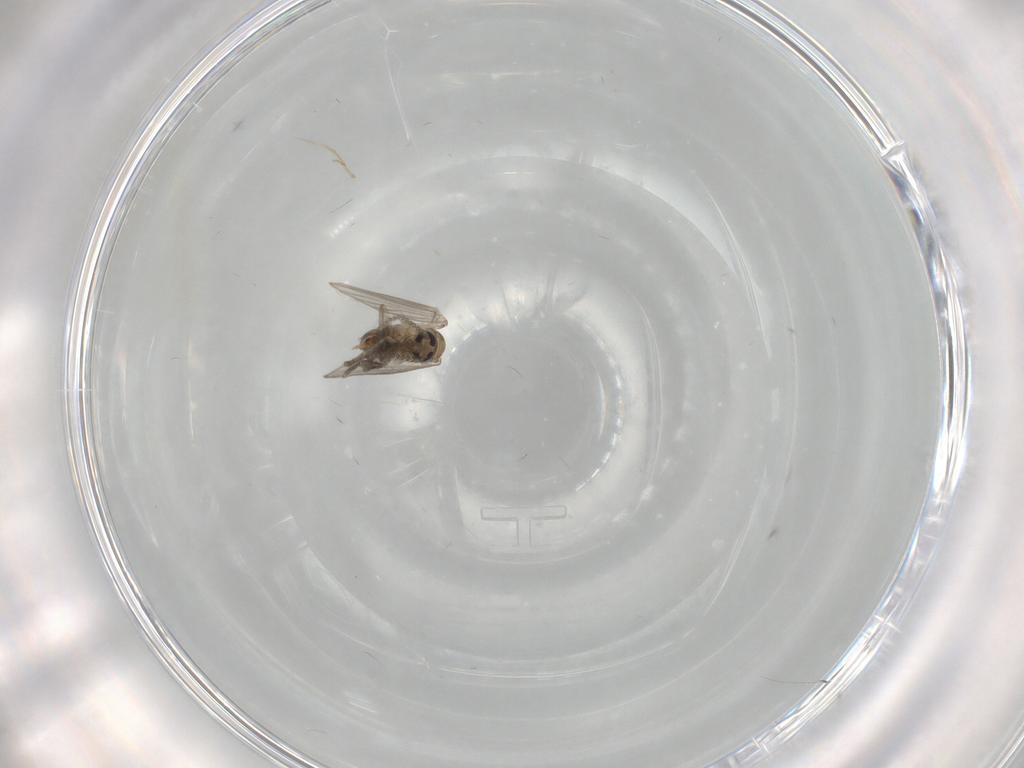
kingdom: Animalia
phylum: Arthropoda
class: Insecta
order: Diptera
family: Psychodidae
